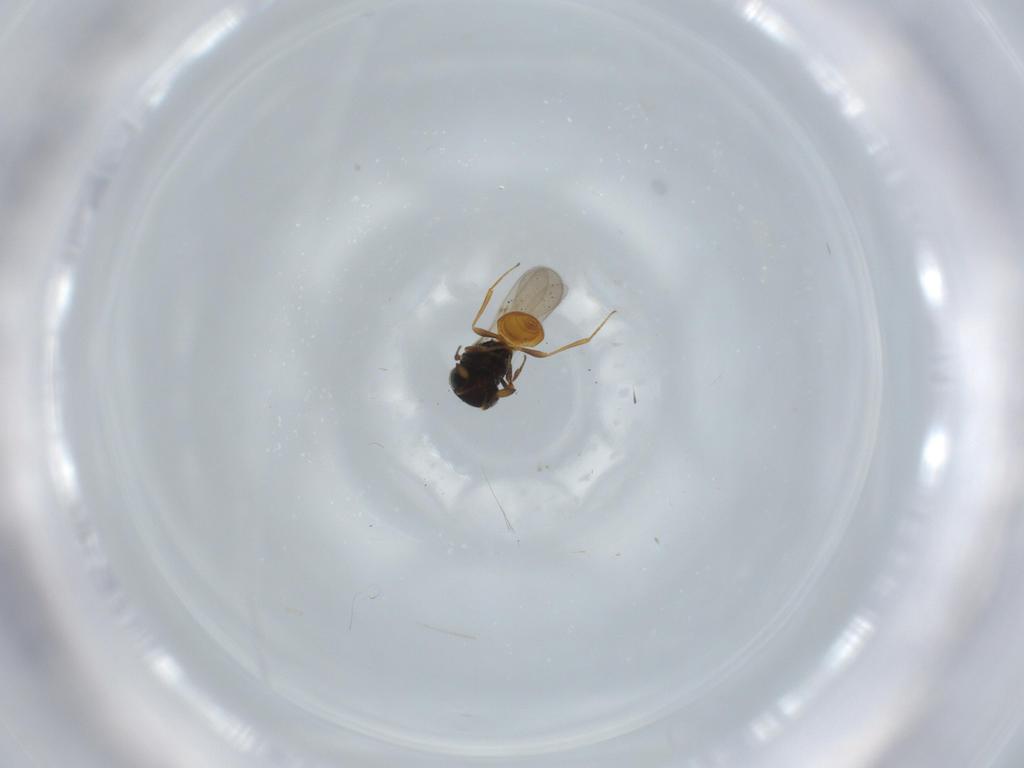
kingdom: Animalia
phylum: Arthropoda
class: Insecta
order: Hymenoptera
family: Scelionidae
